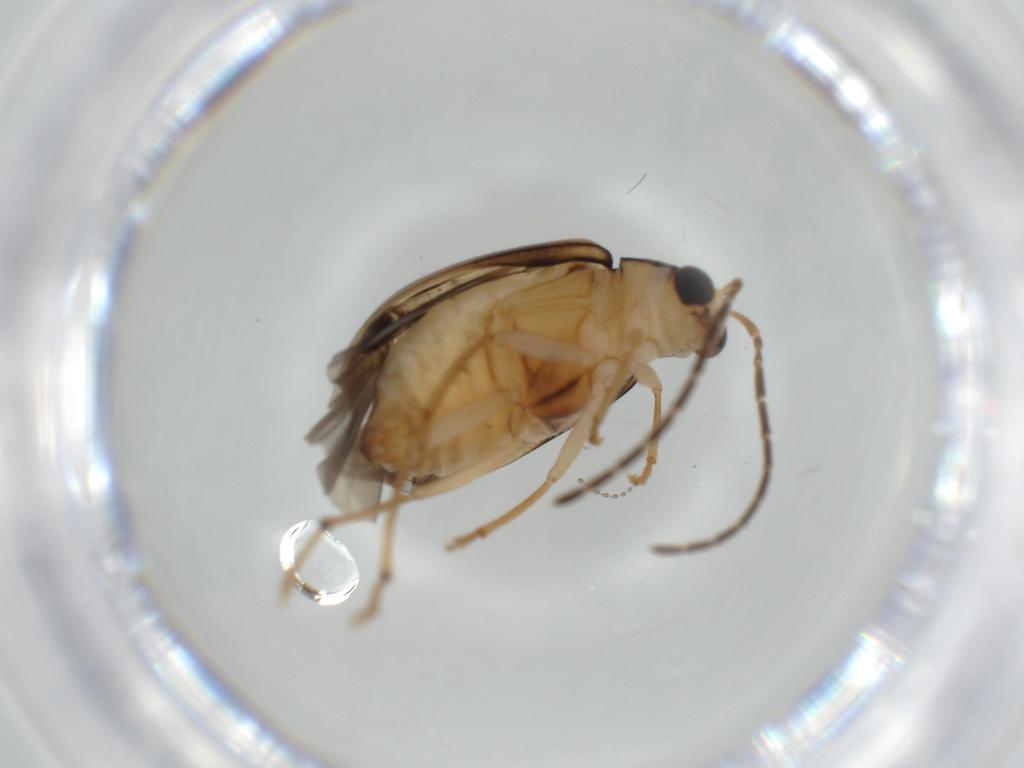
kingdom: Animalia
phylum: Arthropoda
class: Insecta
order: Coleoptera
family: Chrysomelidae
